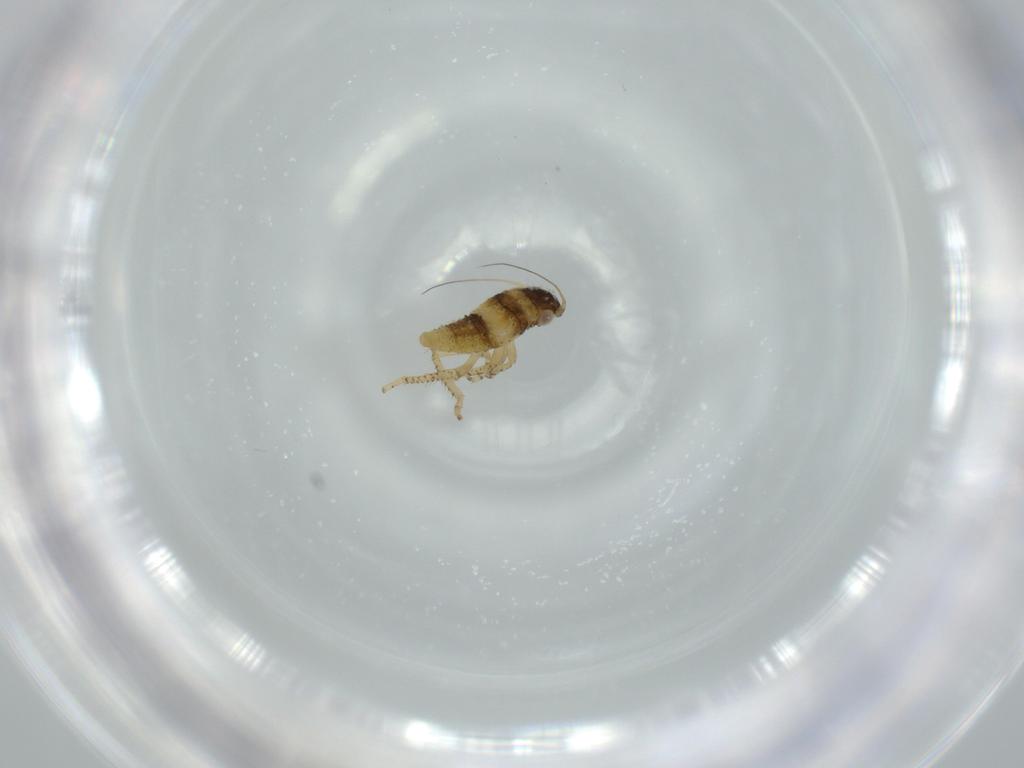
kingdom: Animalia
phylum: Arthropoda
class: Insecta
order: Hemiptera
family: Cicadellidae
